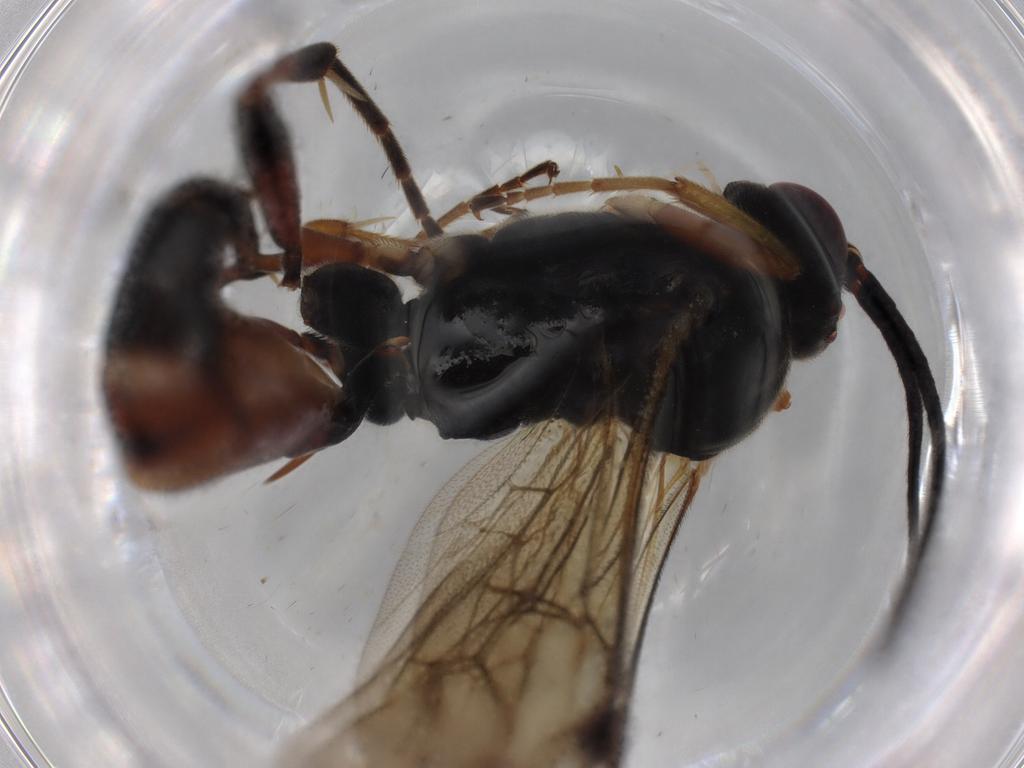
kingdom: Animalia
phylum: Arthropoda
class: Insecta
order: Hymenoptera
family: Ichneumonidae
